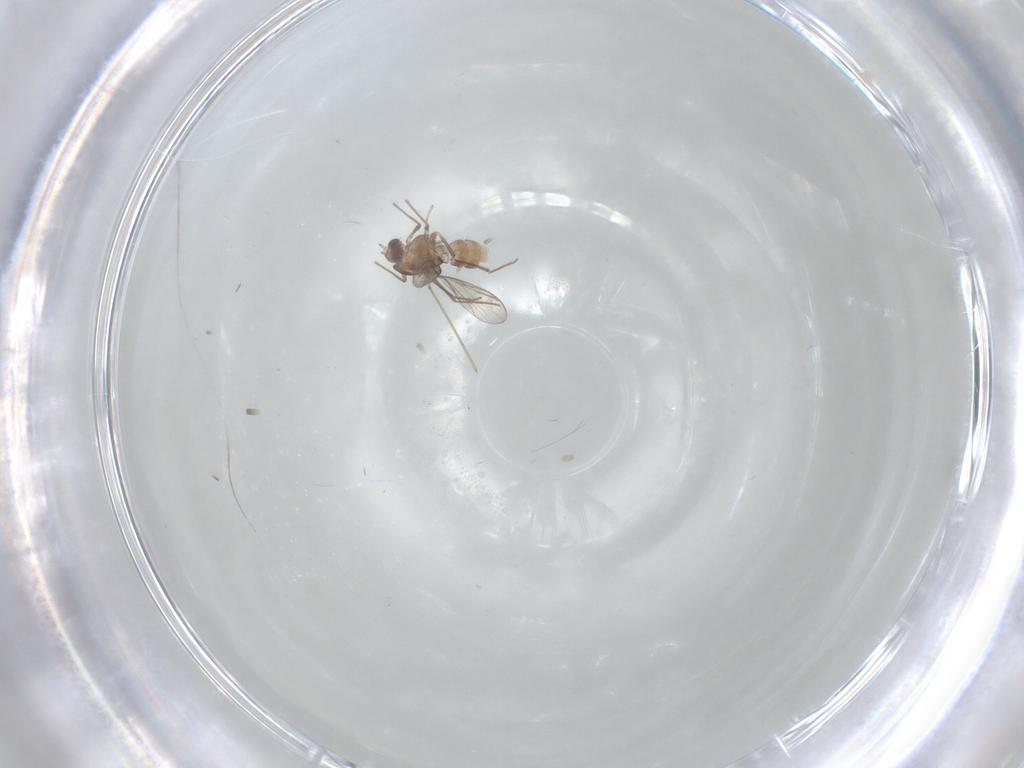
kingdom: Animalia
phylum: Arthropoda
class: Insecta
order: Diptera
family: Chironomidae
